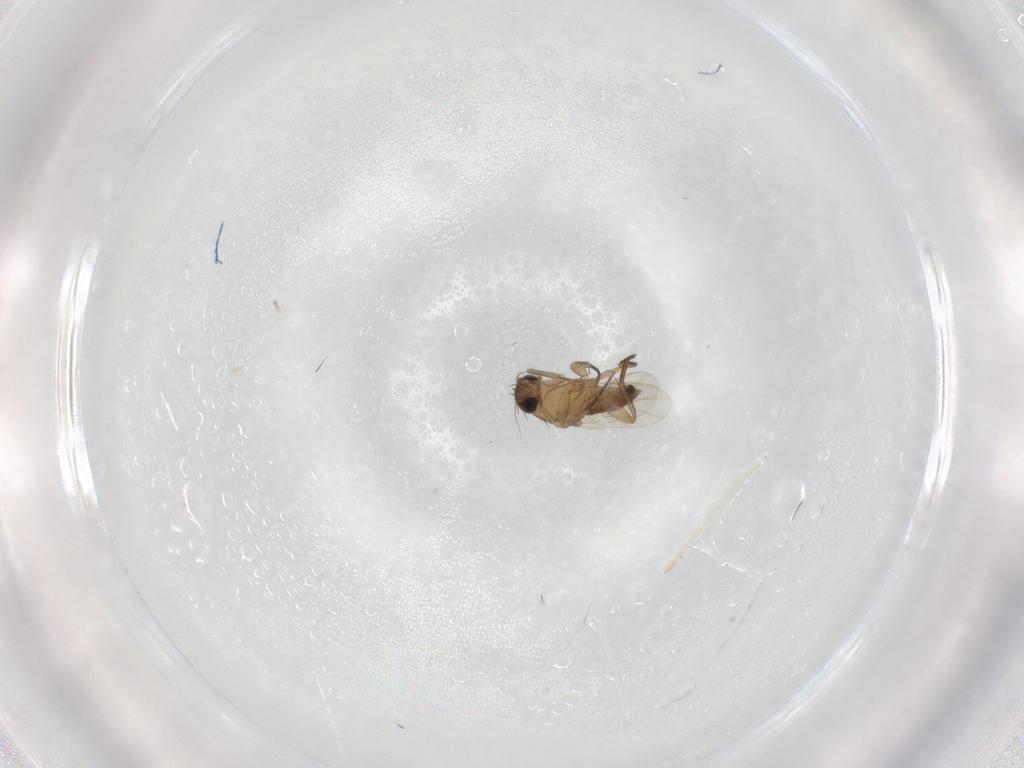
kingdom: Animalia
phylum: Arthropoda
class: Insecta
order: Diptera
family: Phoridae
